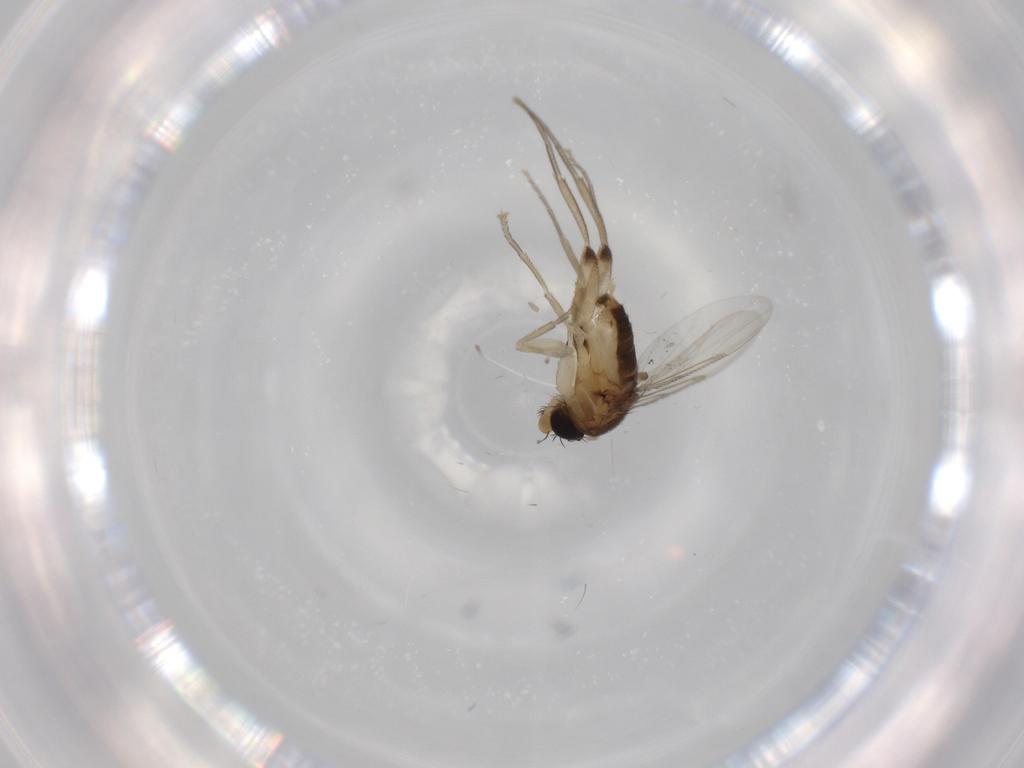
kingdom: Animalia
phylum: Arthropoda
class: Insecta
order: Diptera
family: Phoridae
